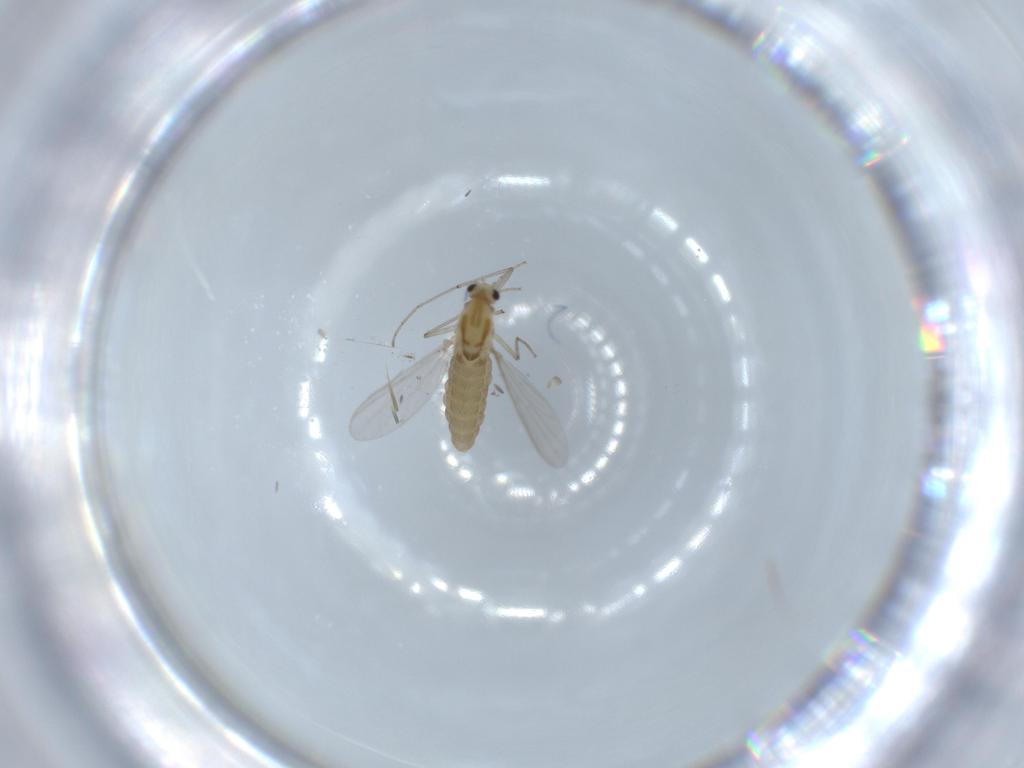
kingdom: Animalia
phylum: Arthropoda
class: Insecta
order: Diptera
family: Chironomidae
